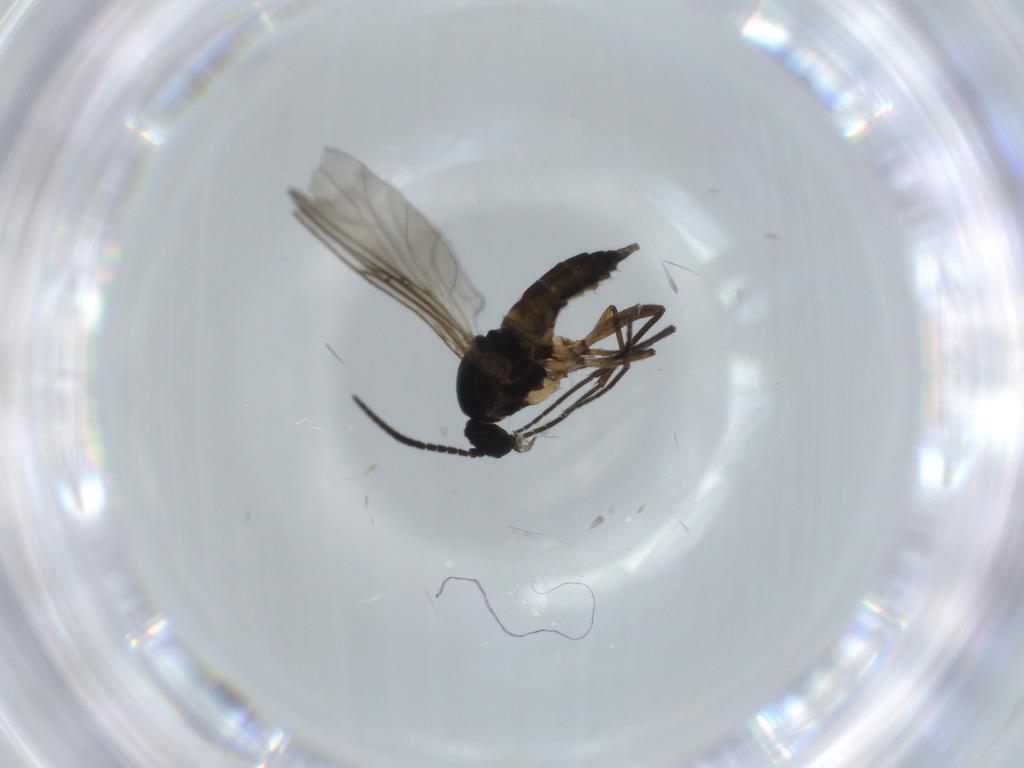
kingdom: Animalia
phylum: Arthropoda
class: Insecta
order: Diptera
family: Sciaridae
